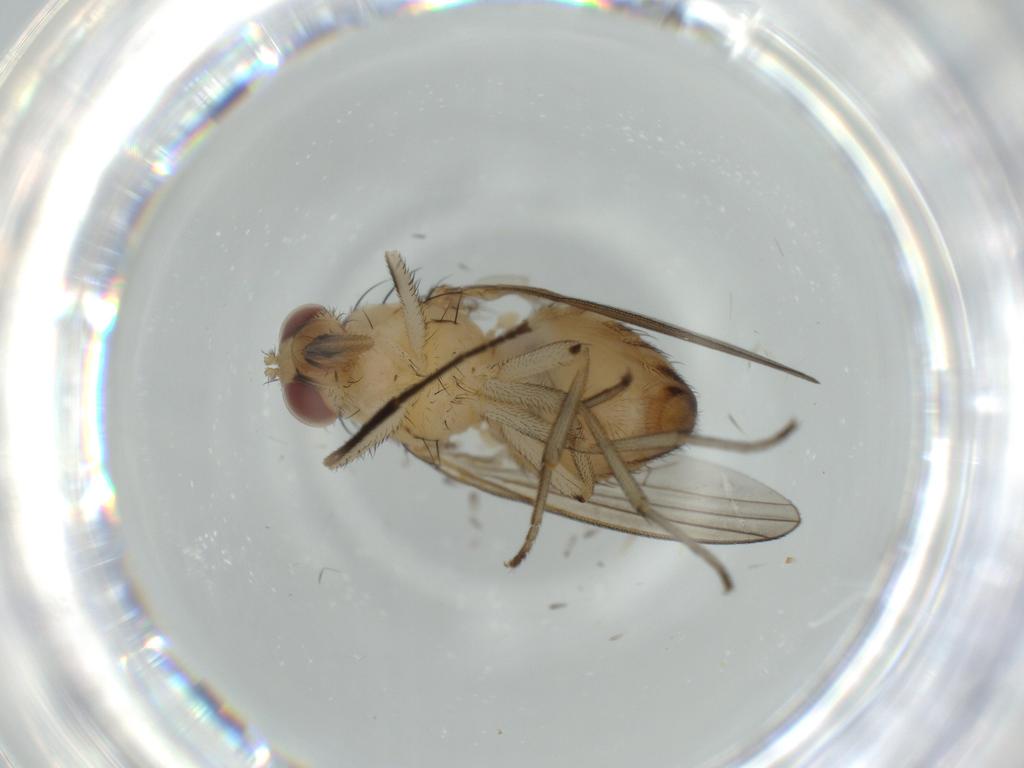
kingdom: Animalia
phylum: Arthropoda
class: Insecta
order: Diptera
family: Lauxaniidae
